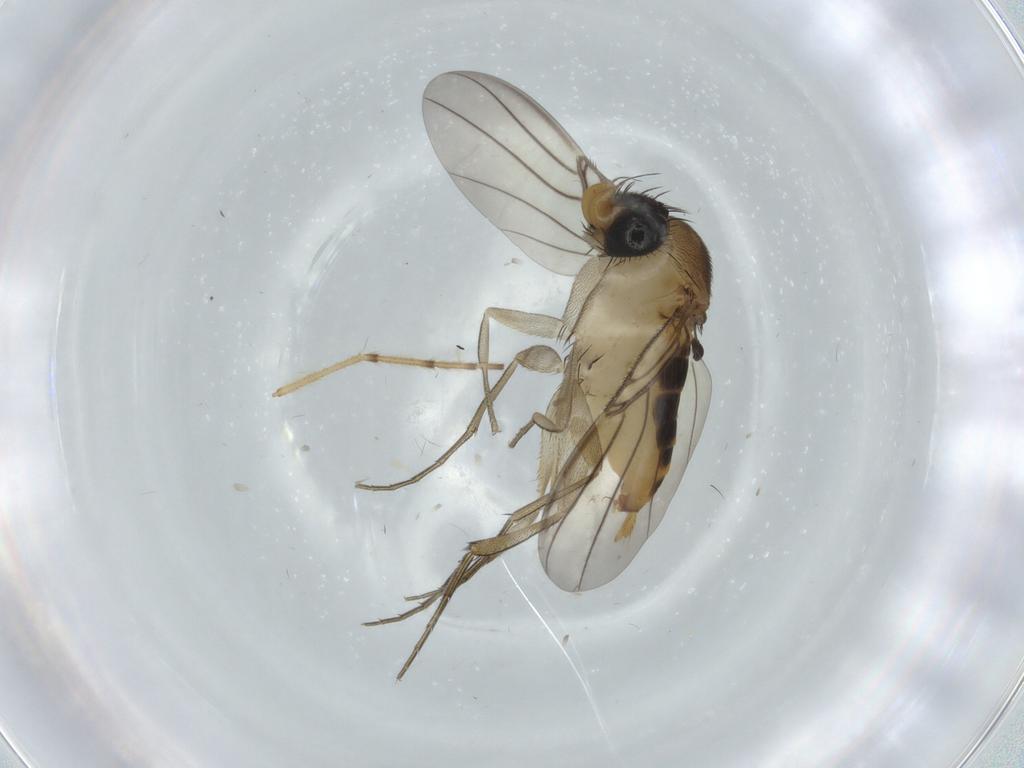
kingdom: Animalia
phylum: Arthropoda
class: Insecta
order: Diptera
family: Phoridae
